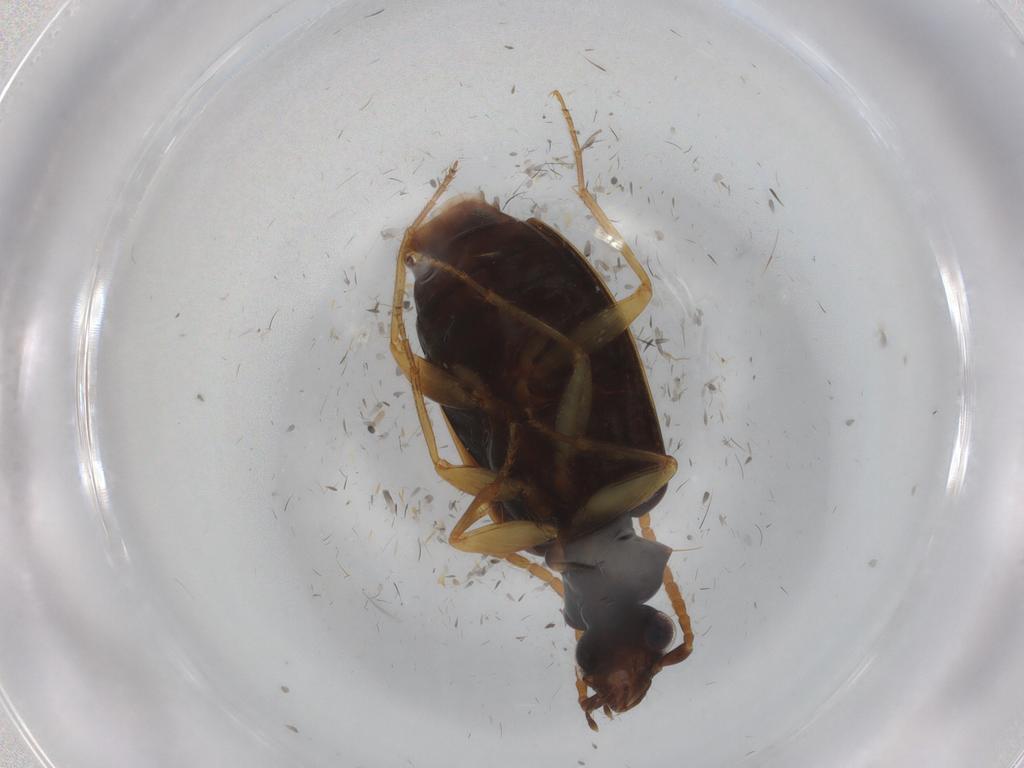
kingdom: Animalia
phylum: Arthropoda
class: Insecta
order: Coleoptera
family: Carabidae
